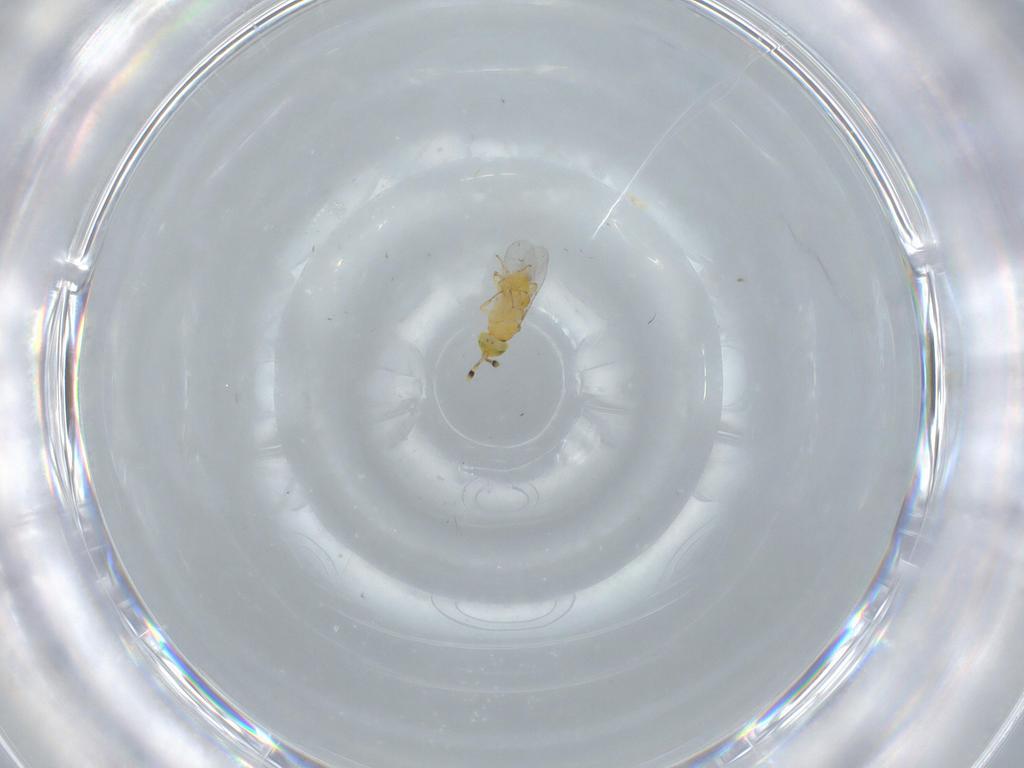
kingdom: Animalia
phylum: Arthropoda
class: Insecta
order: Hymenoptera
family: Encyrtidae
